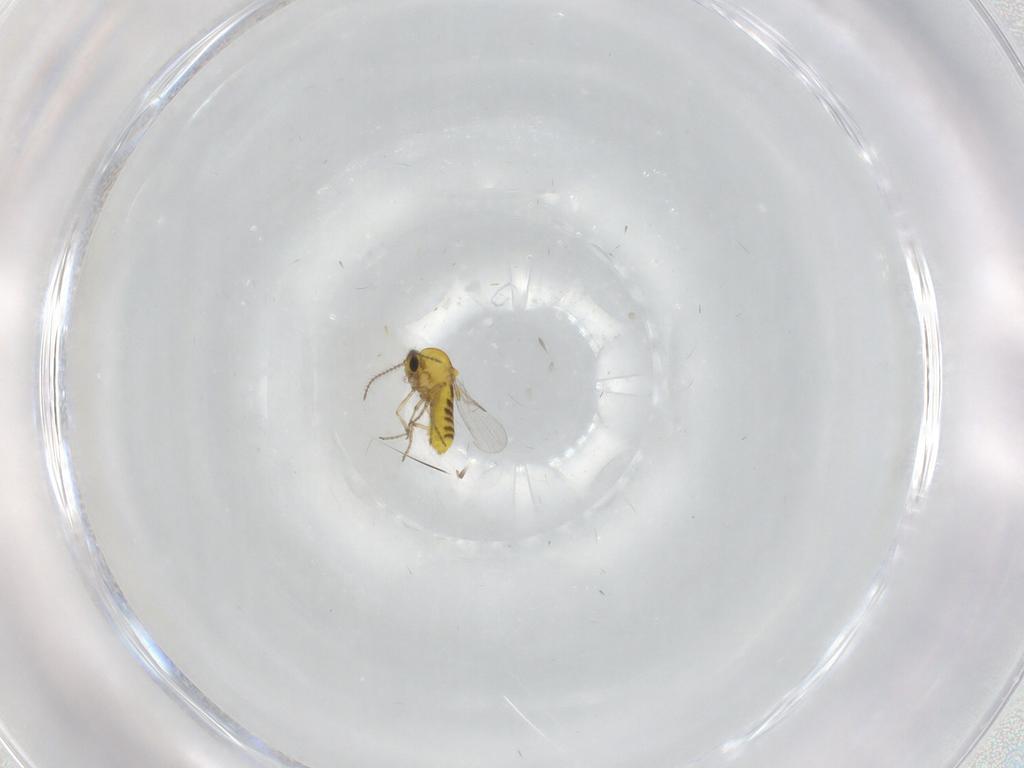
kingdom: Animalia
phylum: Arthropoda
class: Insecta
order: Diptera
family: Ceratopogonidae
